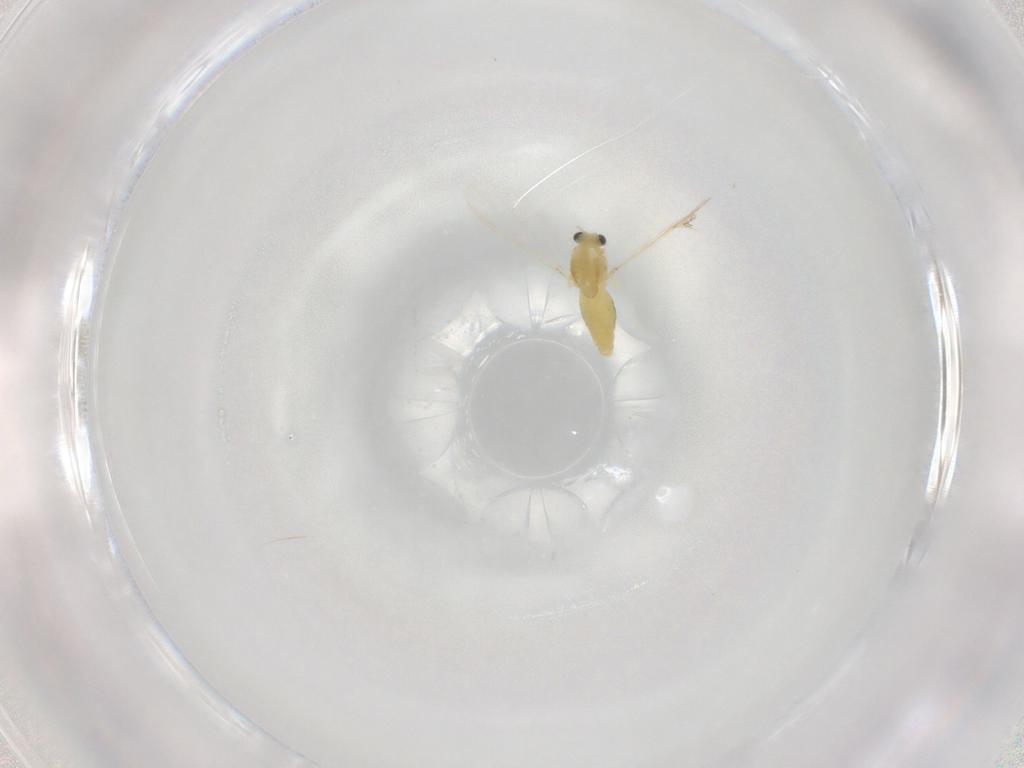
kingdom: Animalia
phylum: Arthropoda
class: Insecta
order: Diptera
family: Chironomidae
